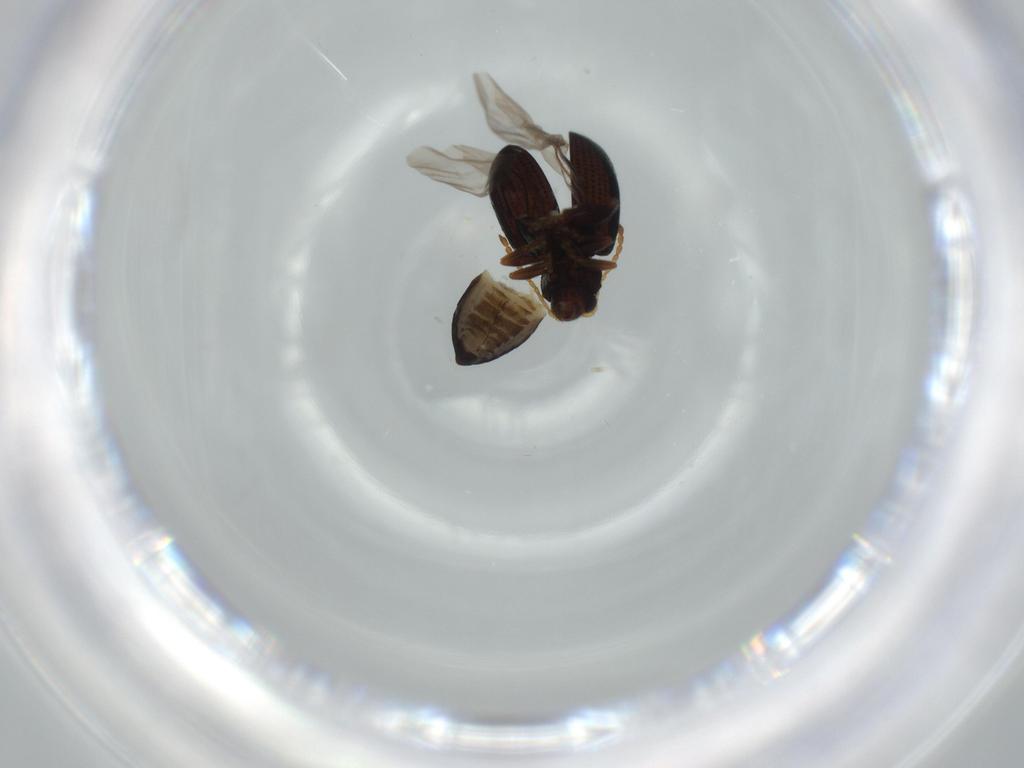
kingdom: Animalia
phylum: Arthropoda
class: Insecta
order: Coleoptera
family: Chrysomelidae
